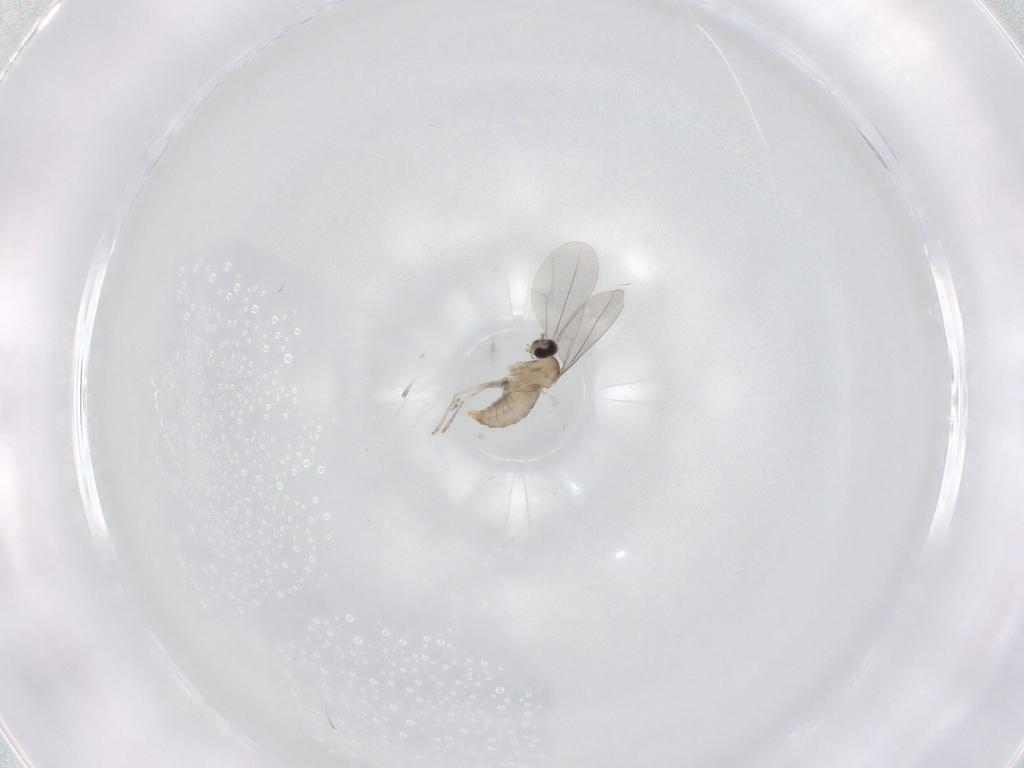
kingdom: Animalia
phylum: Arthropoda
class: Insecta
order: Diptera
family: Cecidomyiidae
